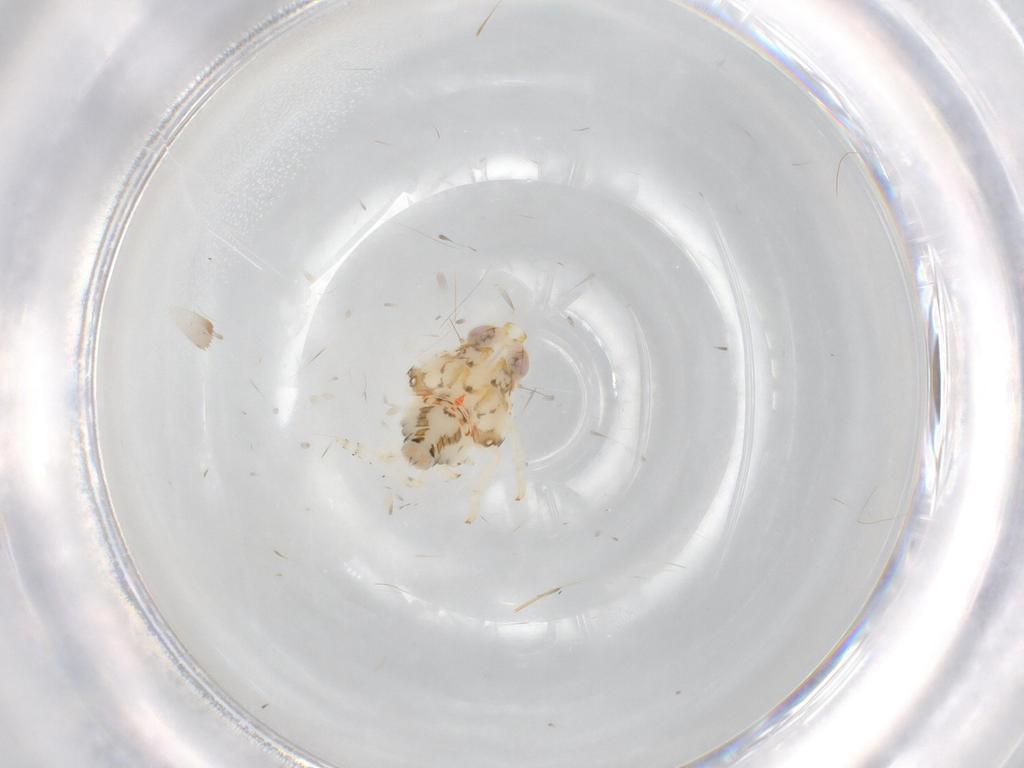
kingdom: Animalia
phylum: Arthropoda
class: Insecta
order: Hemiptera
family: Nogodinidae
